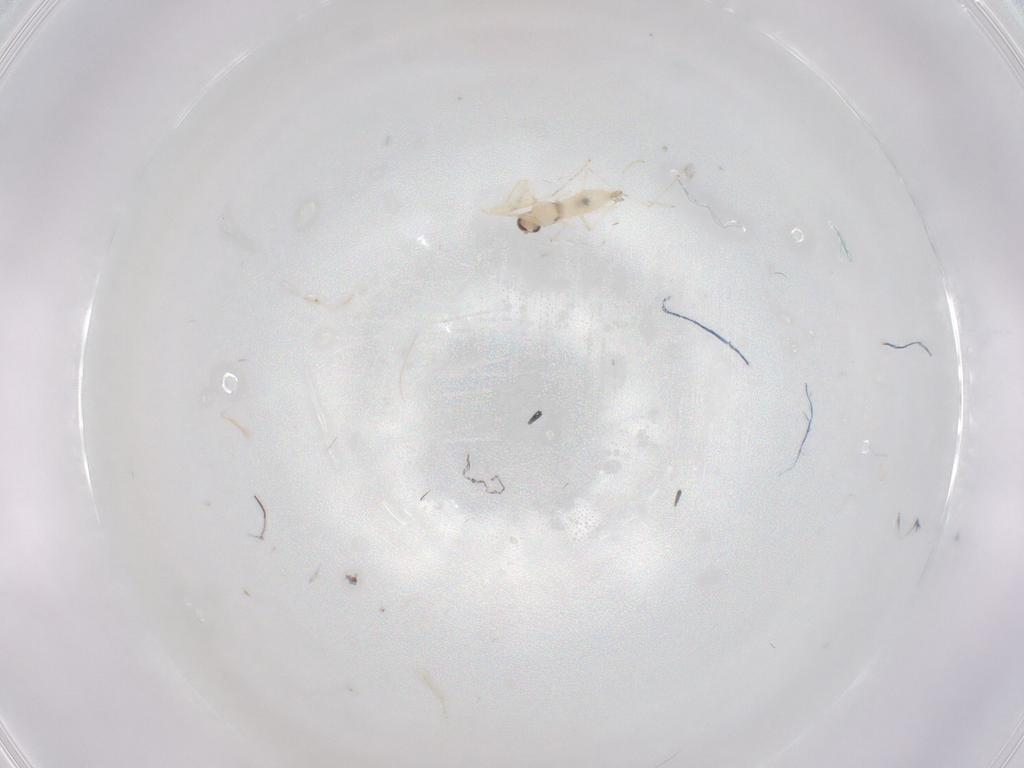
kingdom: Animalia
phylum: Arthropoda
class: Insecta
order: Diptera
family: Cecidomyiidae
